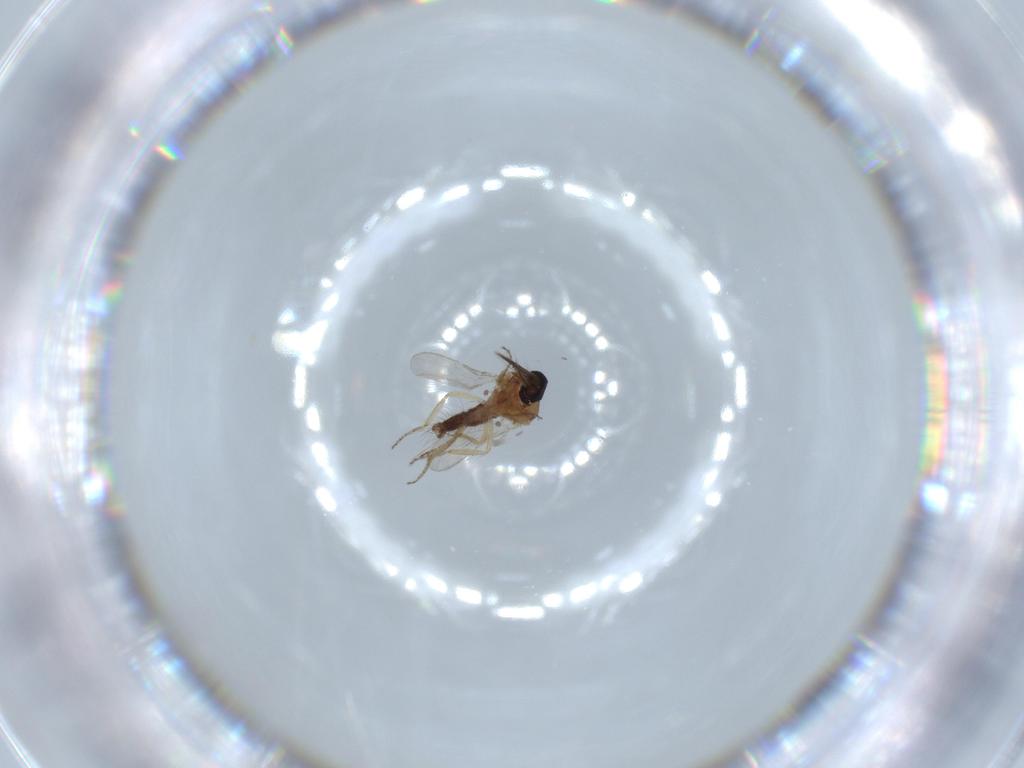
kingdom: Animalia
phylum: Arthropoda
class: Insecta
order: Diptera
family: Ceratopogonidae
